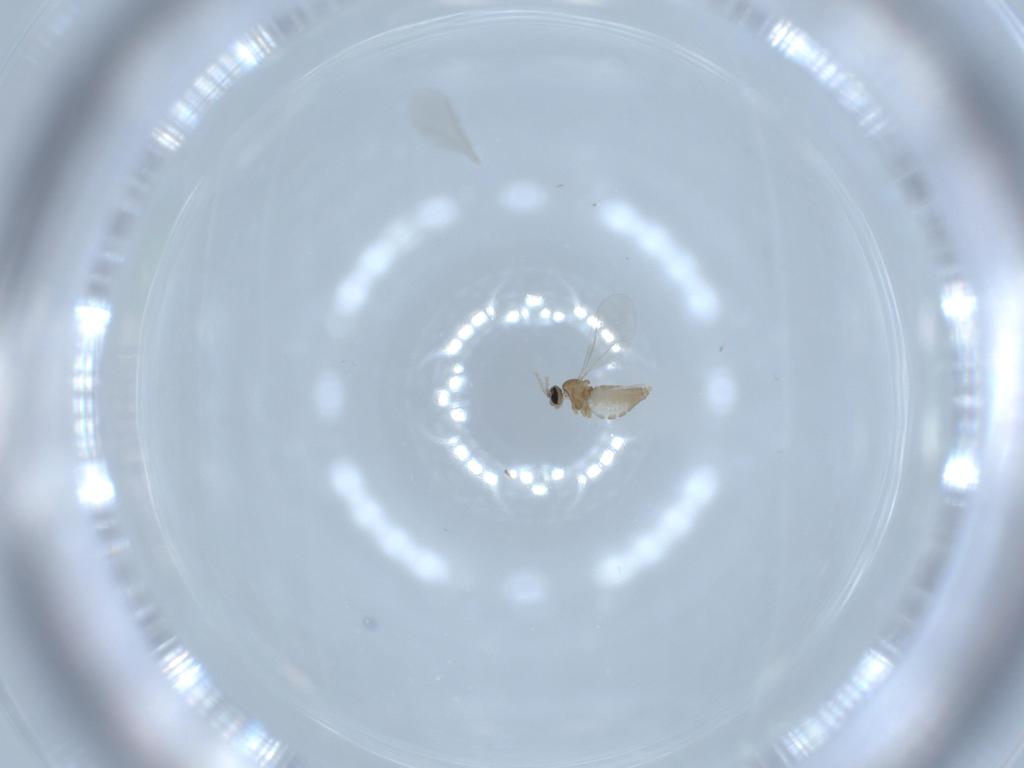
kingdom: Animalia
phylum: Arthropoda
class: Insecta
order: Diptera
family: Cecidomyiidae
